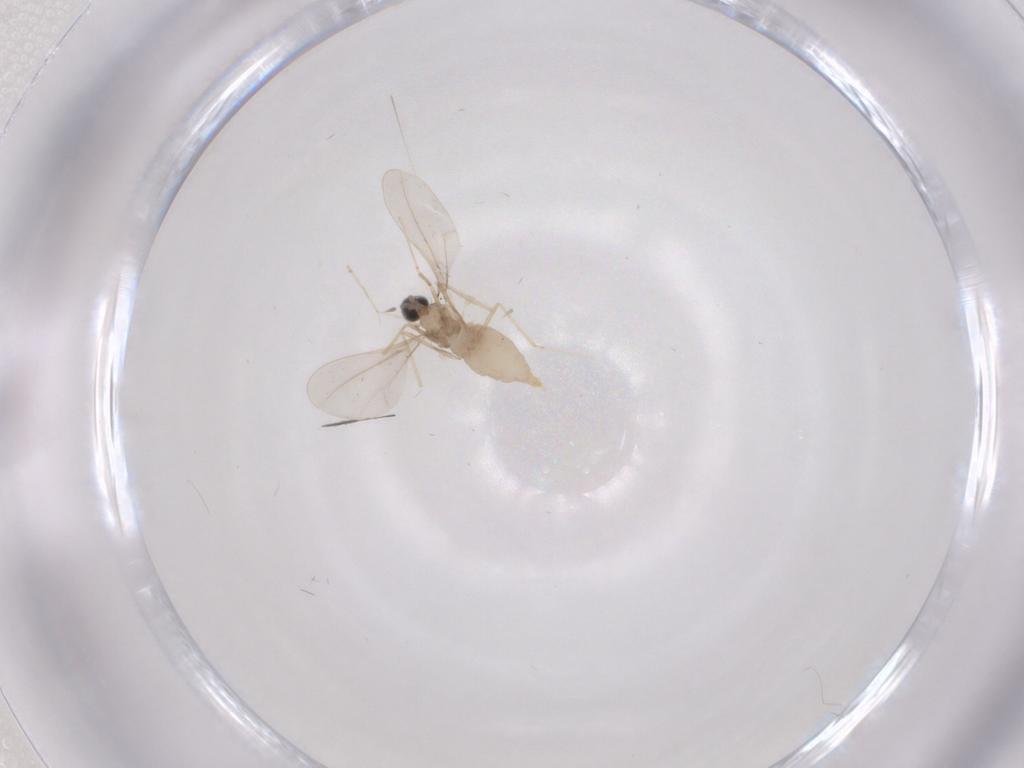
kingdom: Animalia
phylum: Arthropoda
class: Insecta
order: Diptera
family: Cecidomyiidae
